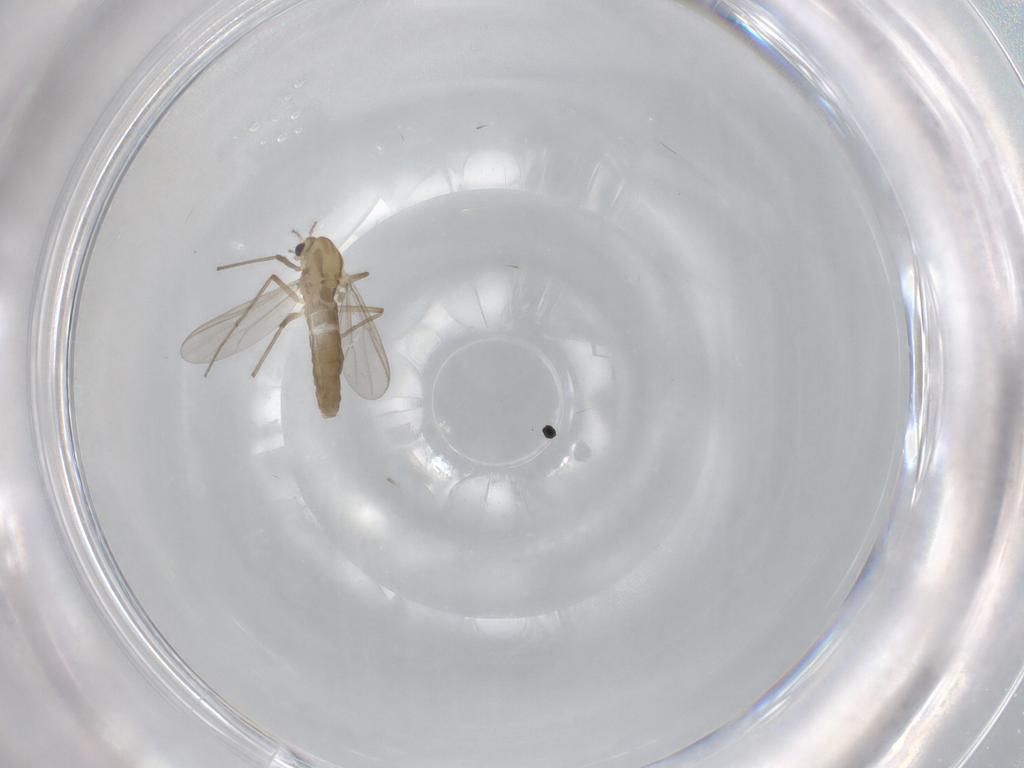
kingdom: Animalia
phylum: Arthropoda
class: Insecta
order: Diptera
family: Chironomidae
